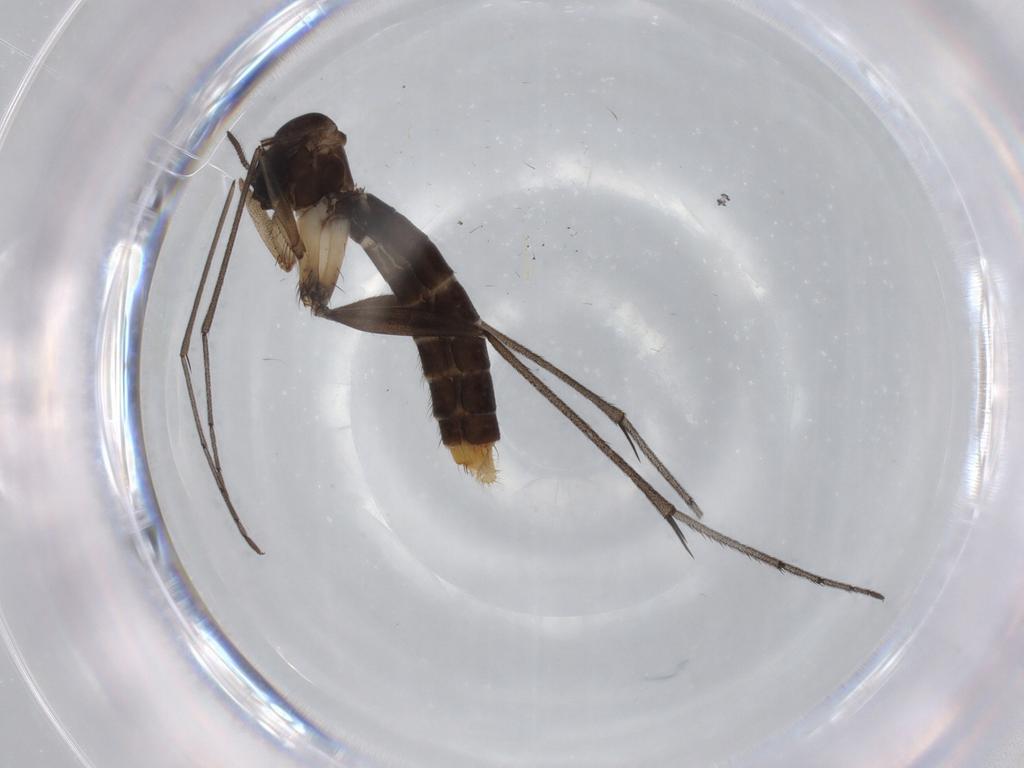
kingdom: Animalia
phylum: Arthropoda
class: Insecta
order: Diptera
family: Ditomyiidae
